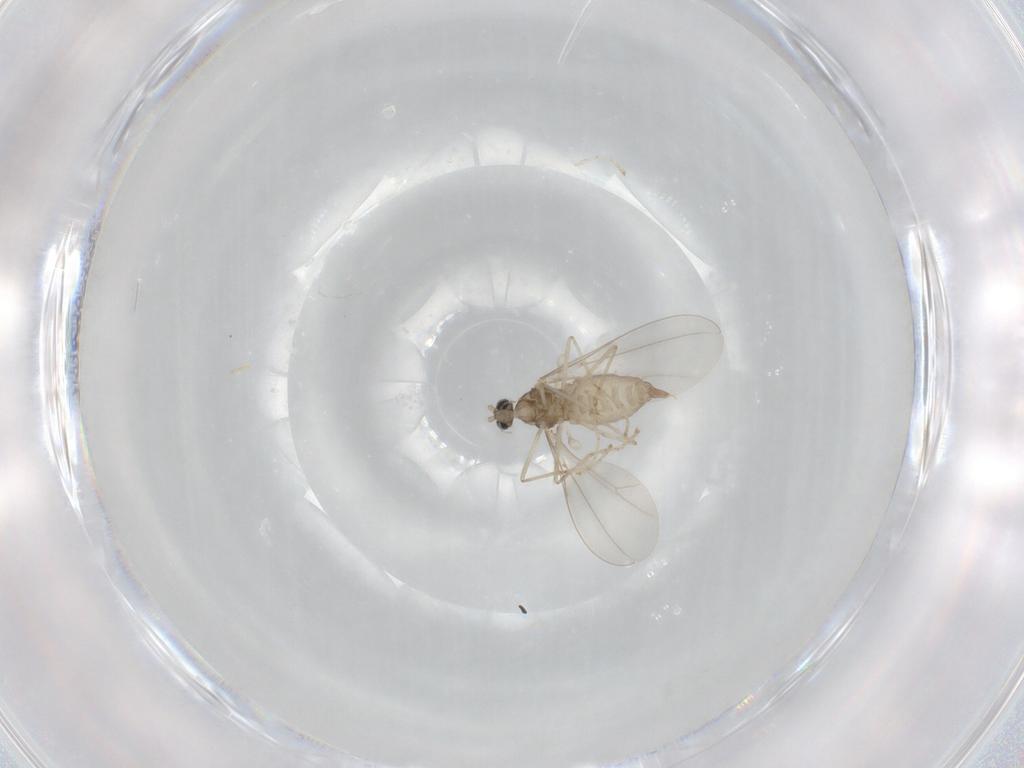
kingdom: Animalia
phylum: Arthropoda
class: Insecta
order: Diptera
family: Cecidomyiidae
